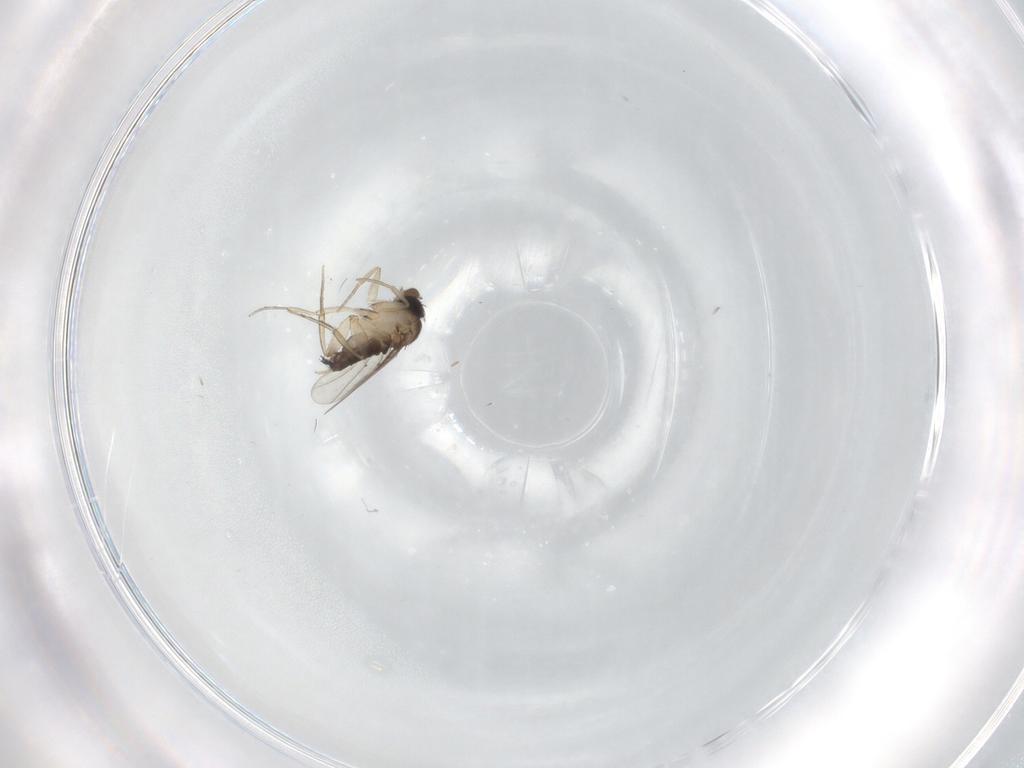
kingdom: Animalia
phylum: Arthropoda
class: Insecta
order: Diptera
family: Phoridae
